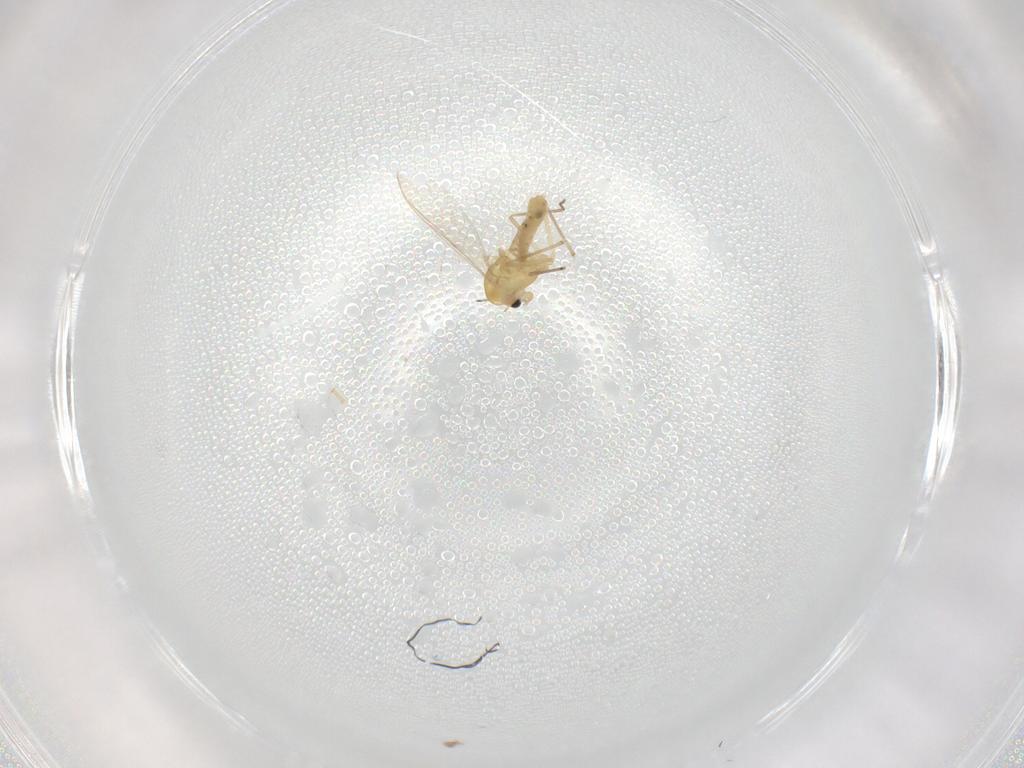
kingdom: Animalia
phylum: Arthropoda
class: Insecta
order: Diptera
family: Chironomidae
